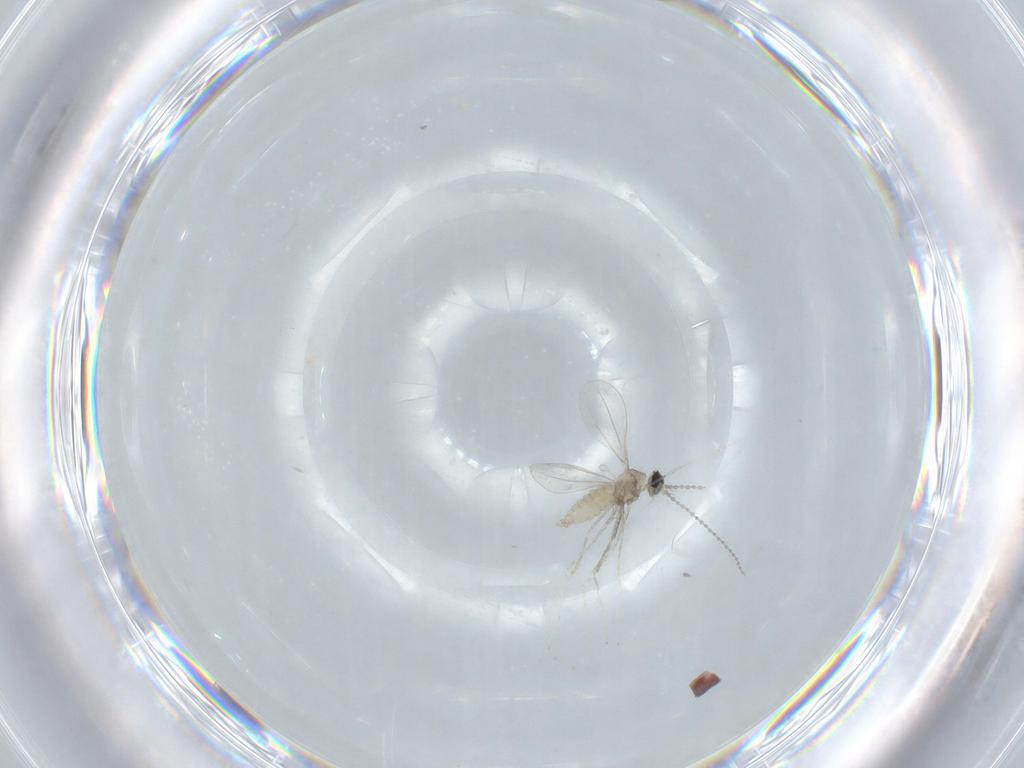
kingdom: Animalia
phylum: Arthropoda
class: Insecta
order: Diptera
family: Cecidomyiidae
